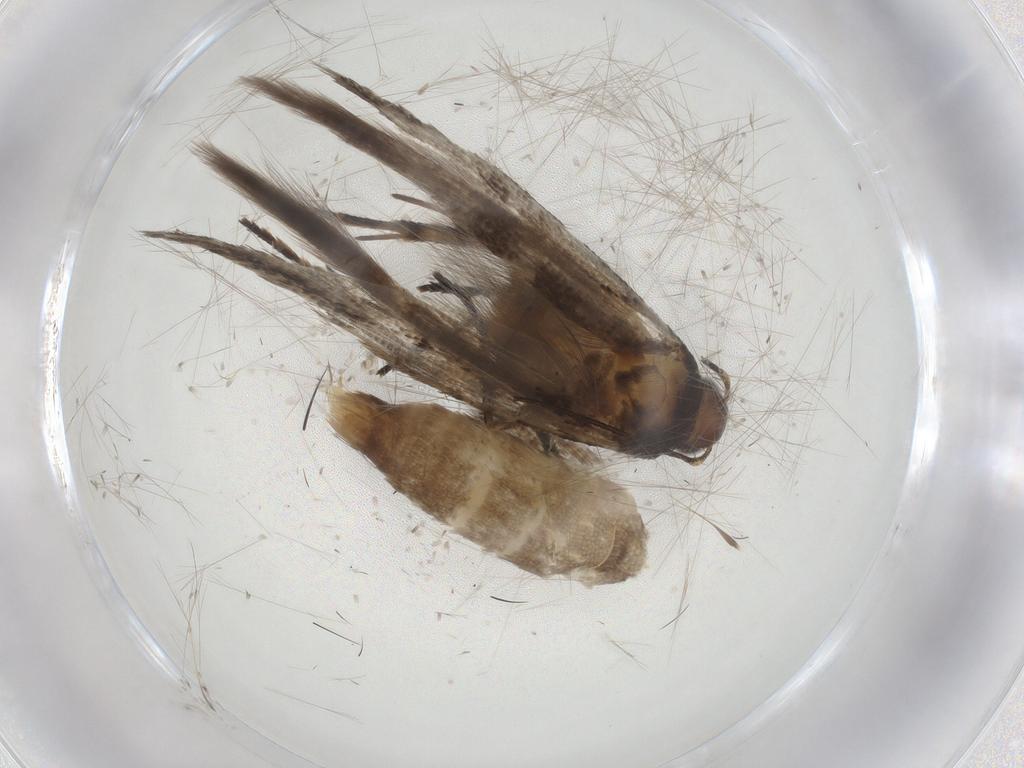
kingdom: Animalia
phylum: Arthropoda
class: Insecta
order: Lepidoptera
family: Gelechiidae
